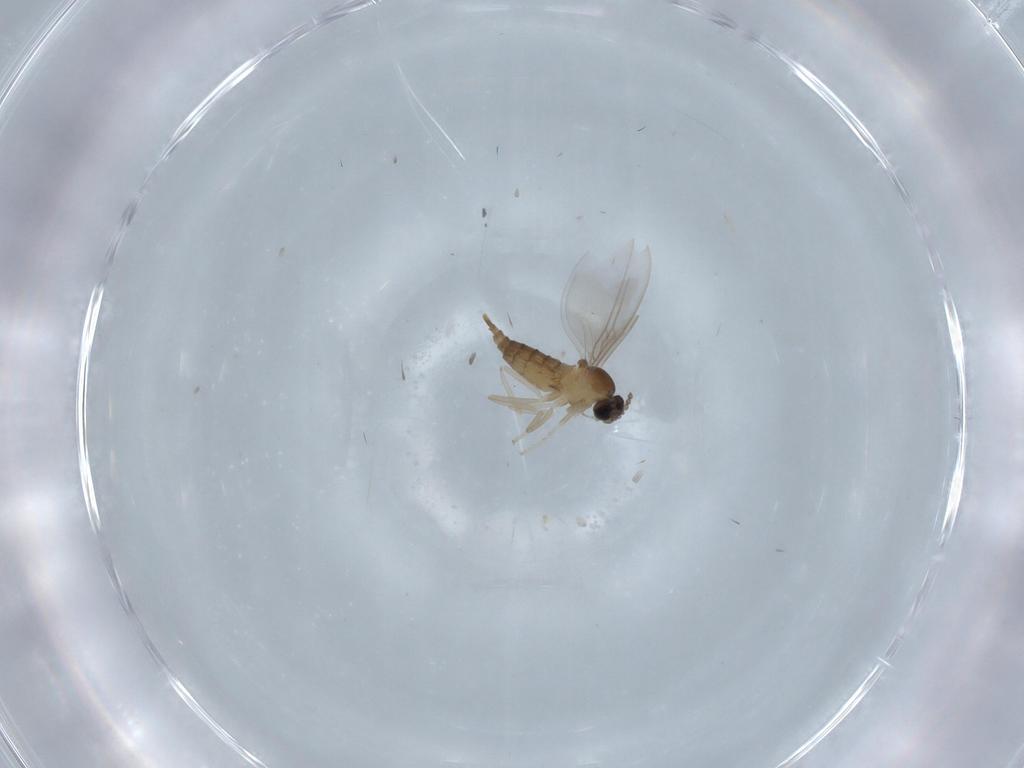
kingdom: Animalia
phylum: Arthropoda
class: Insecta
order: Diptera
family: Cecidomyiidae
